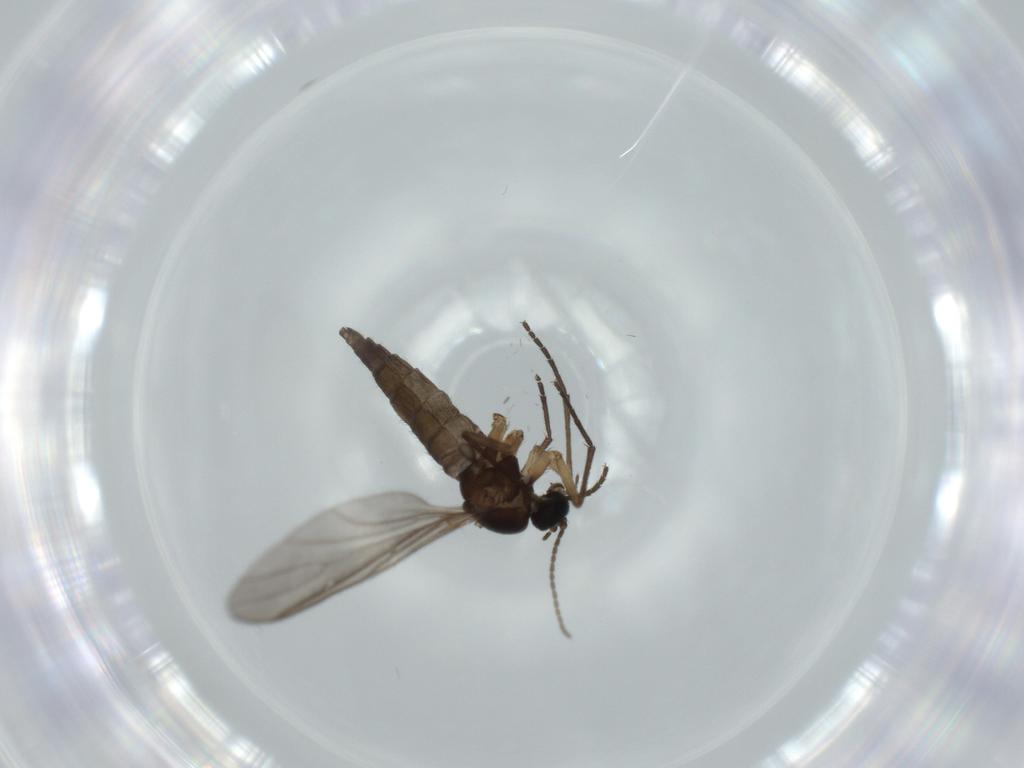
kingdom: Animalia
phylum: Arthropoda
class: Insecta
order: Diptera
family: Sciaridae
